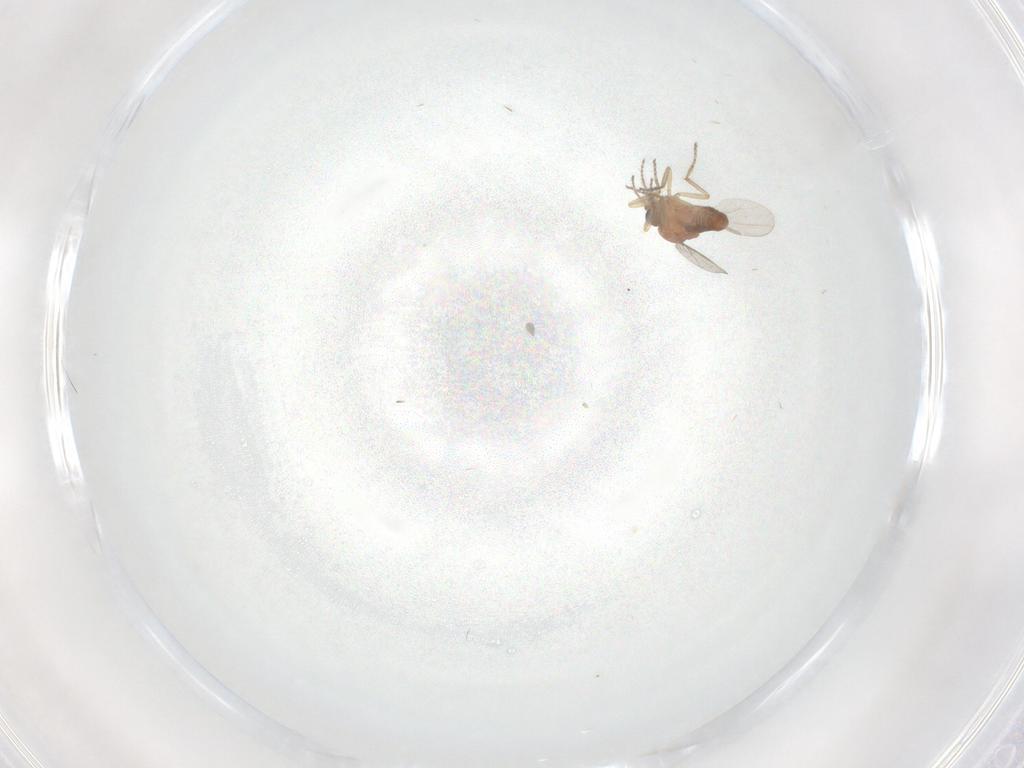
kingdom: Animalia
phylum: Arthropoda
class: Insecta
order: Diptera
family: Ceratopogonidae
